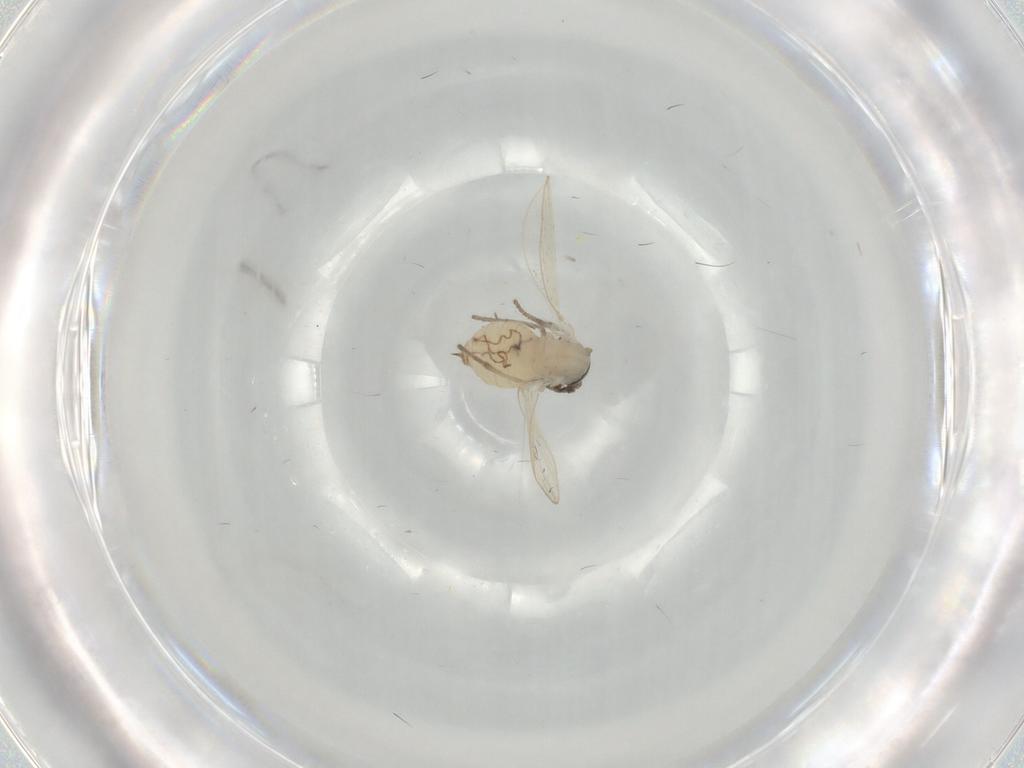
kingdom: Animalia
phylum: Arthropoda
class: Insecta
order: Diptera
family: Psychodidae
